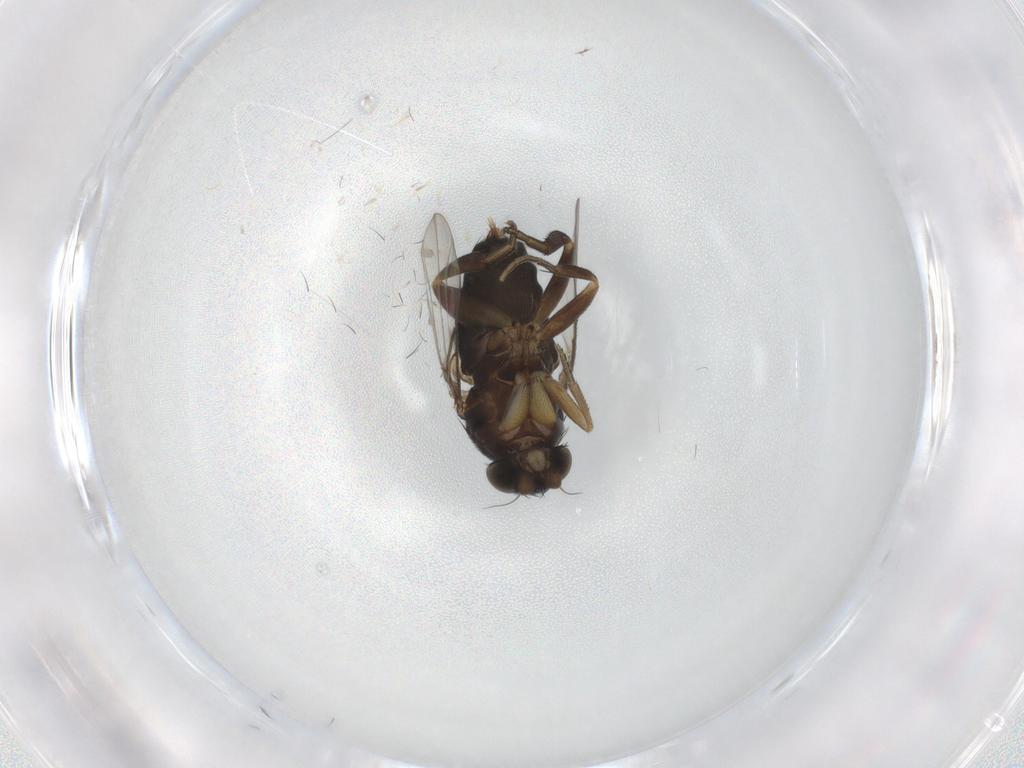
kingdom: Animalia
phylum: Arthropoda
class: Insecta
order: Diptera
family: Phoridae
